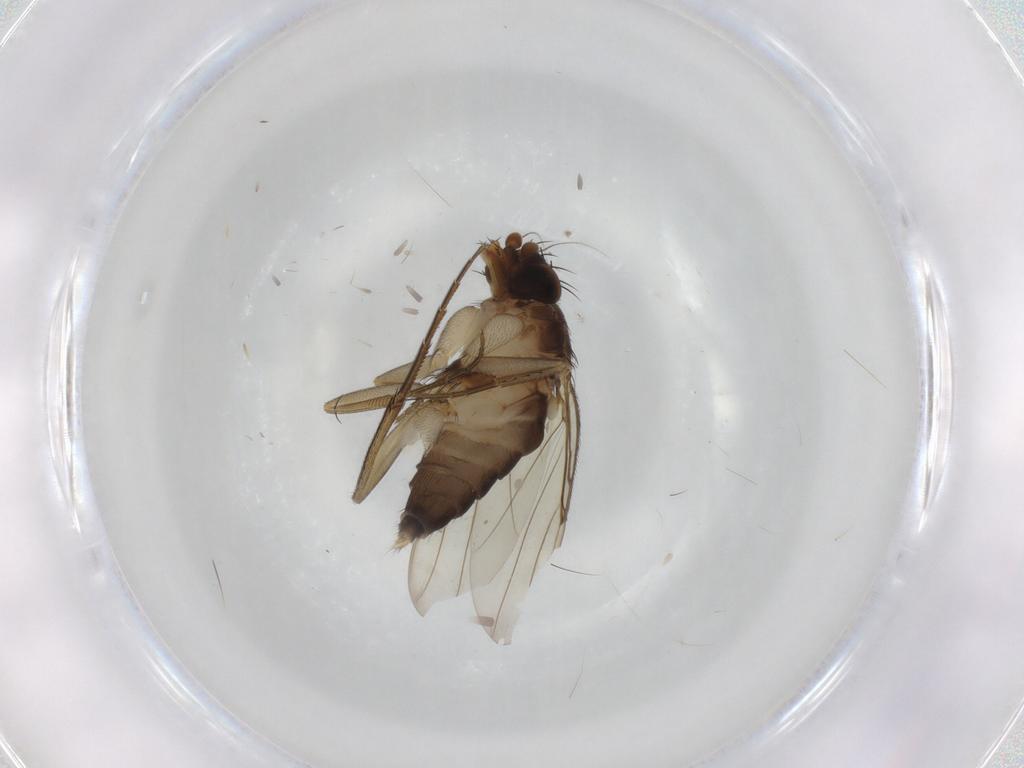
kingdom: Animalia
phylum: Arthropoda
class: Insecta
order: Diptera
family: Phoridae
